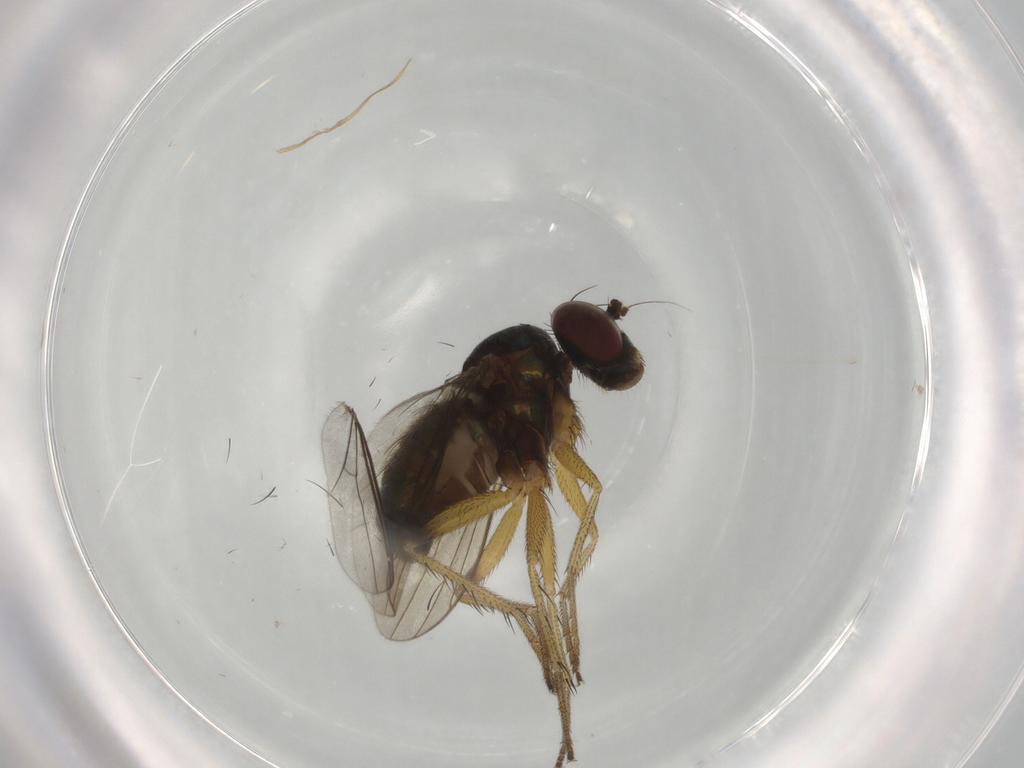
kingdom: Animalia
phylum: Arthropoda
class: Insecta
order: Diptera
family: Dolichopodidae
